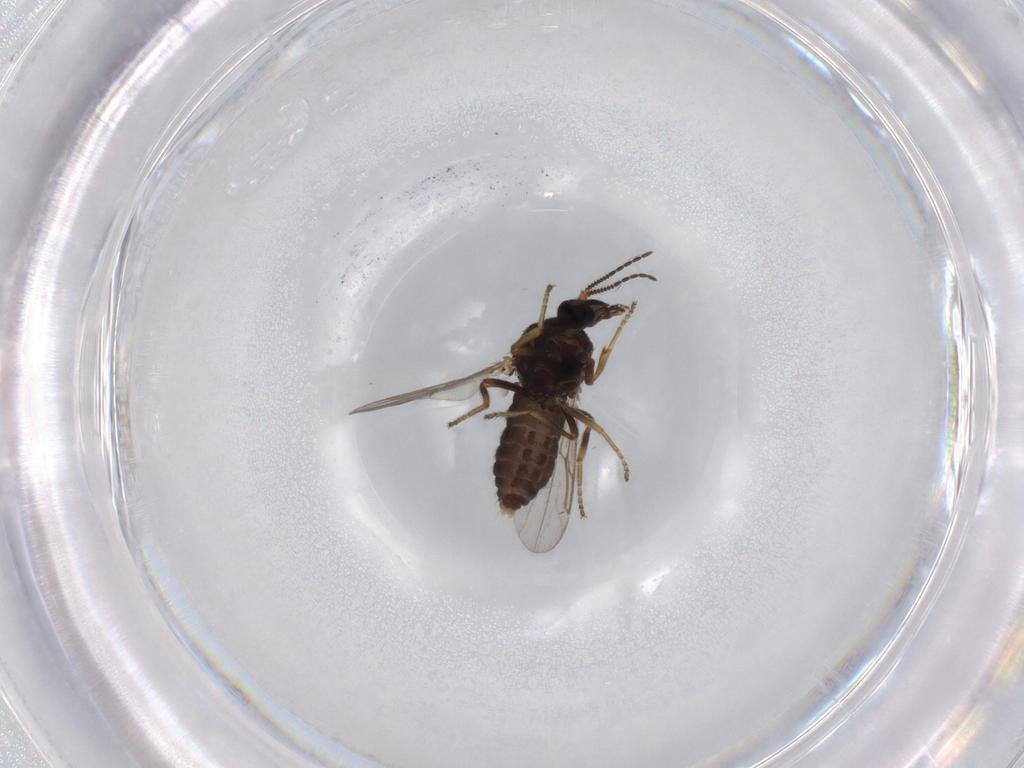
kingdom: Animalia
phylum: Arthropoda
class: Insecta
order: Diptera
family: Ceratopogonidae
